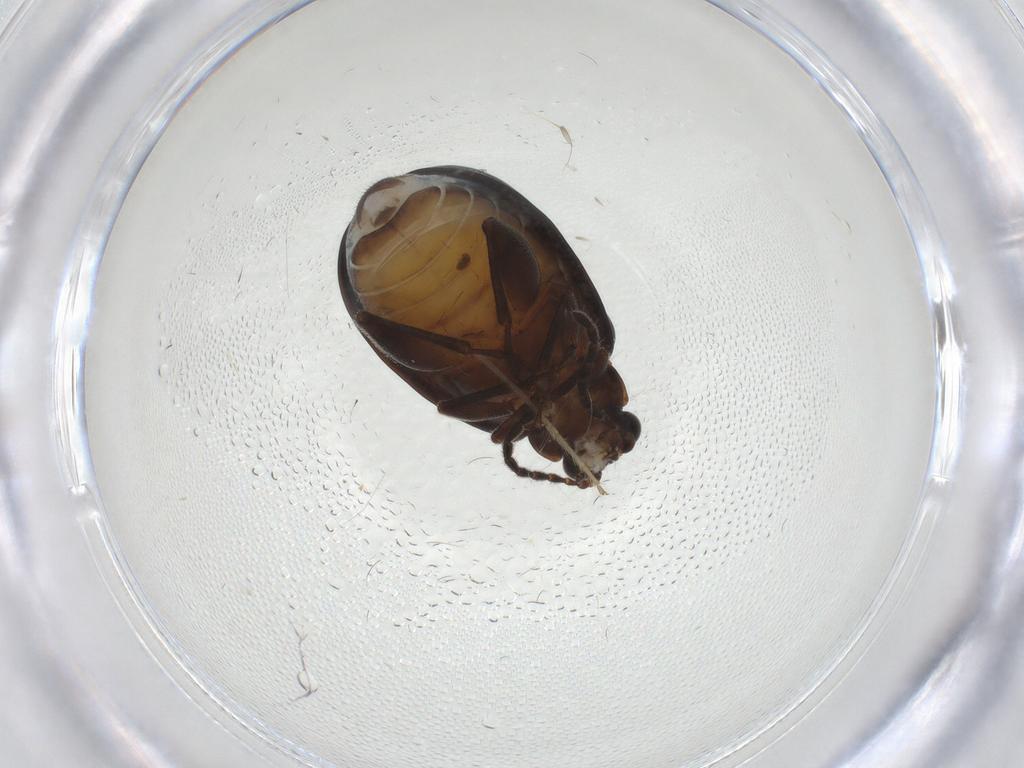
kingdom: Animalia
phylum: Arthropoda
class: Insecta
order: Coleoptera
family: Chrysomelidae
